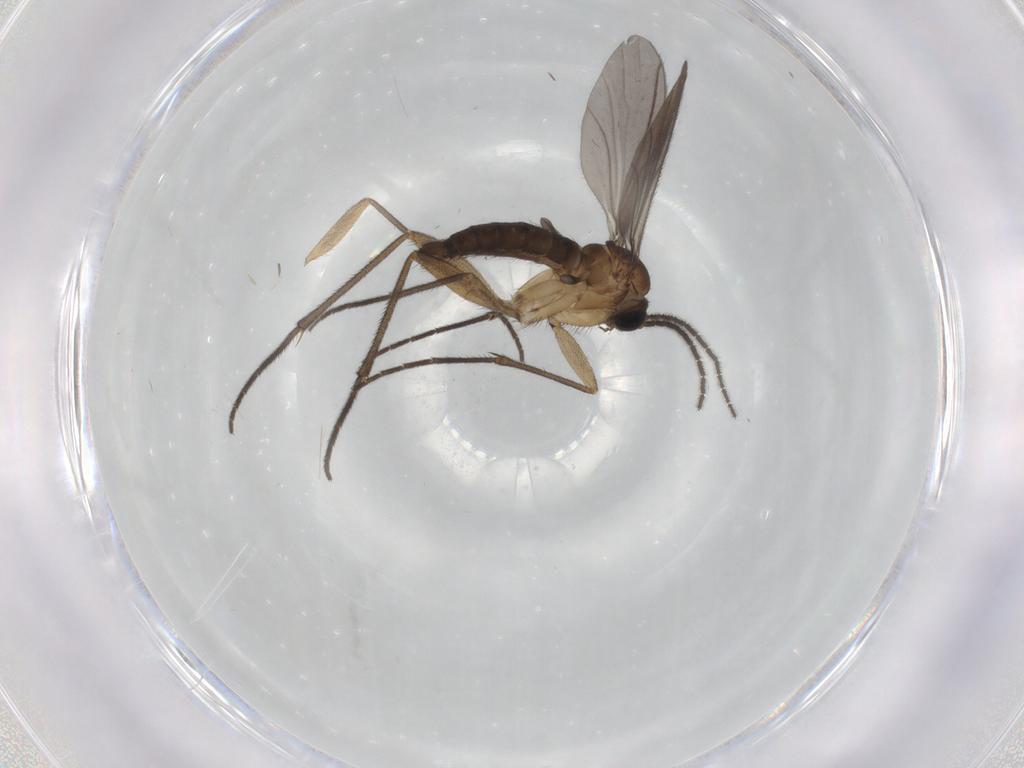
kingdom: Animalia
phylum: Arthropoda
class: Insecta
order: Diptera
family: Sciaridae
